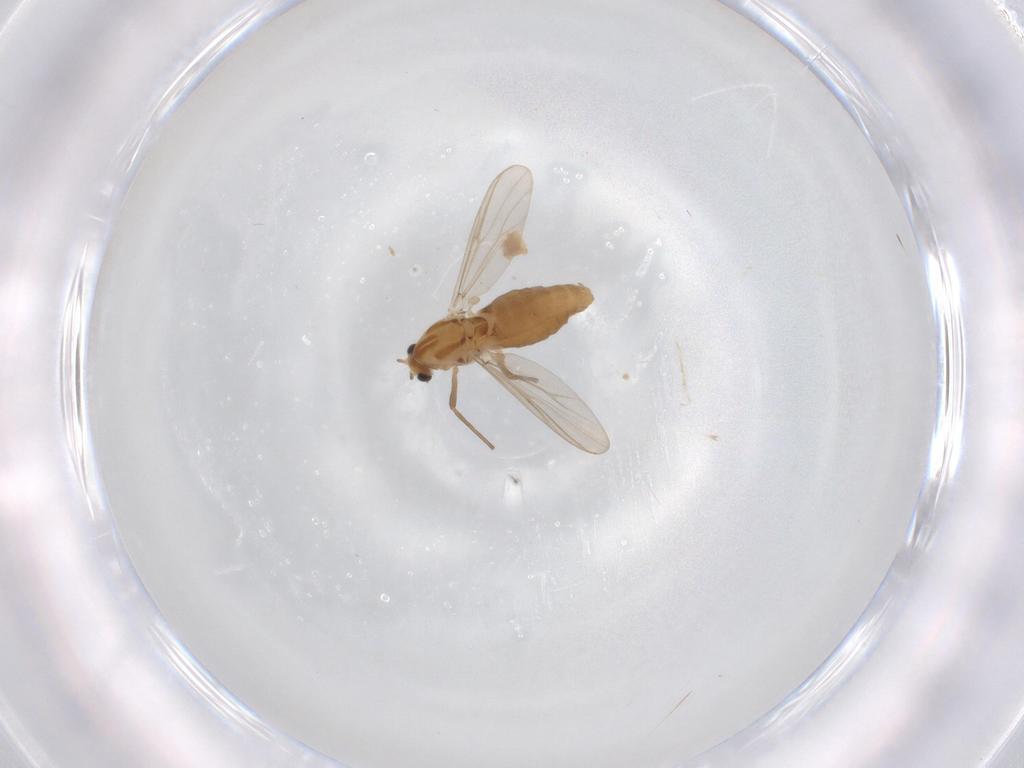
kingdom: Animalia
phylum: Arthropoda
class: Insecta
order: Diptera
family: Chironomidae
